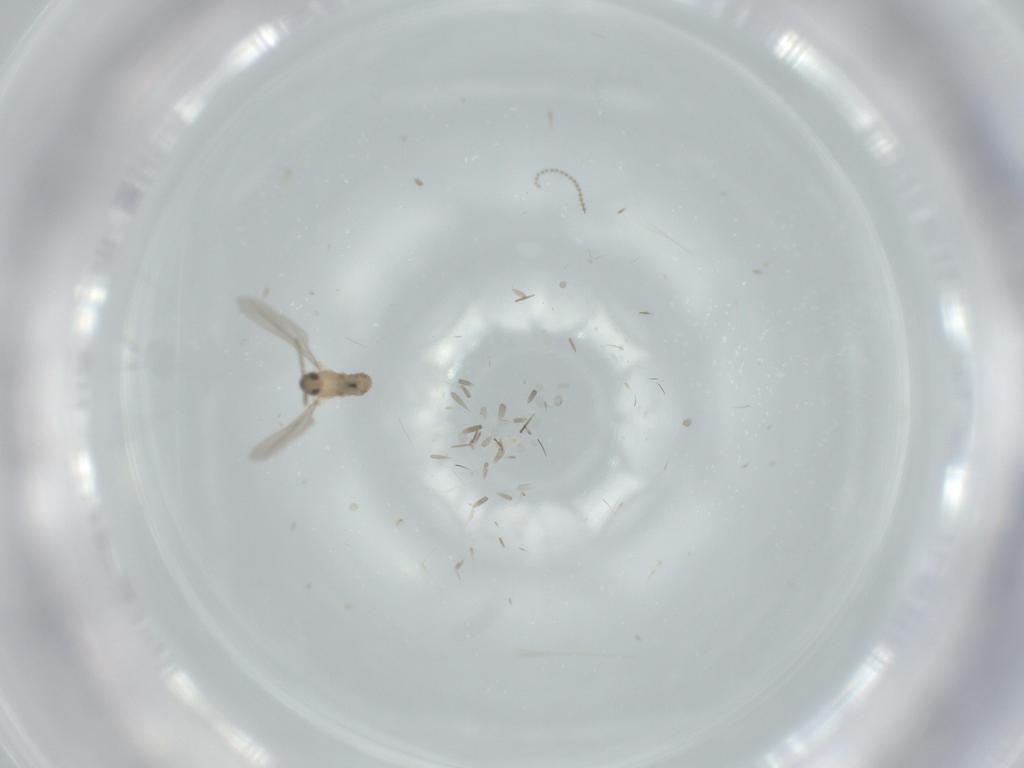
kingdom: Animalia
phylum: Arthropoda
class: Insecta
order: Diptera
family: Cecidomyiidae
